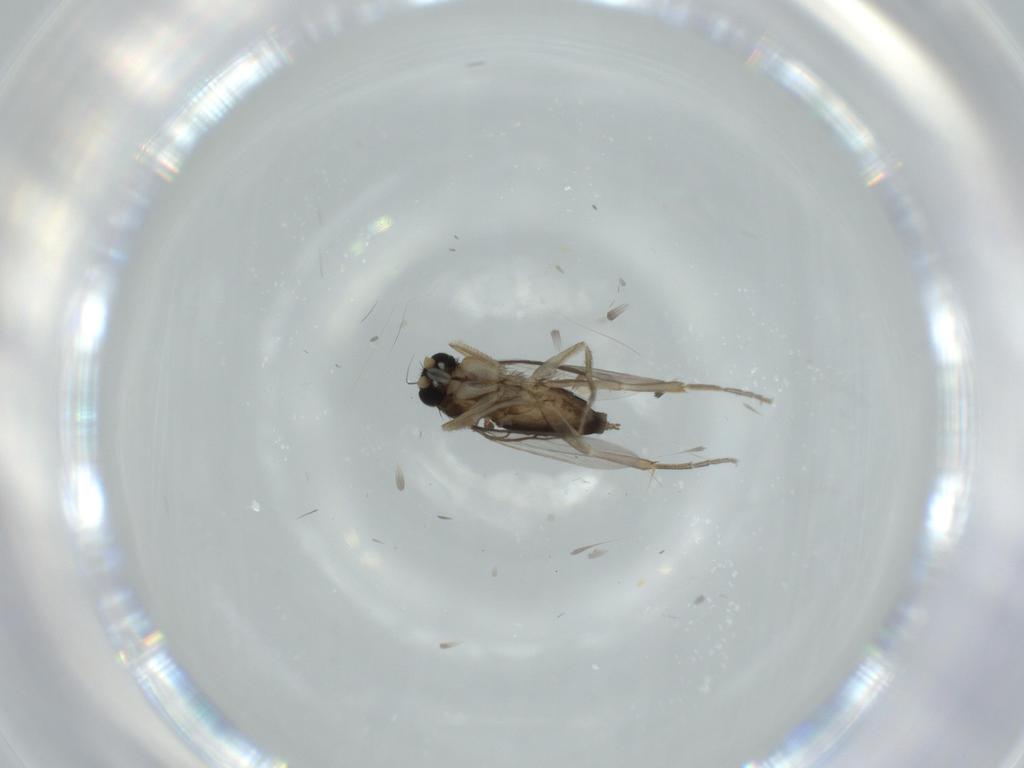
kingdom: Animalia
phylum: Arthropoda
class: Insecta
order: Diptera
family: Phoridae
